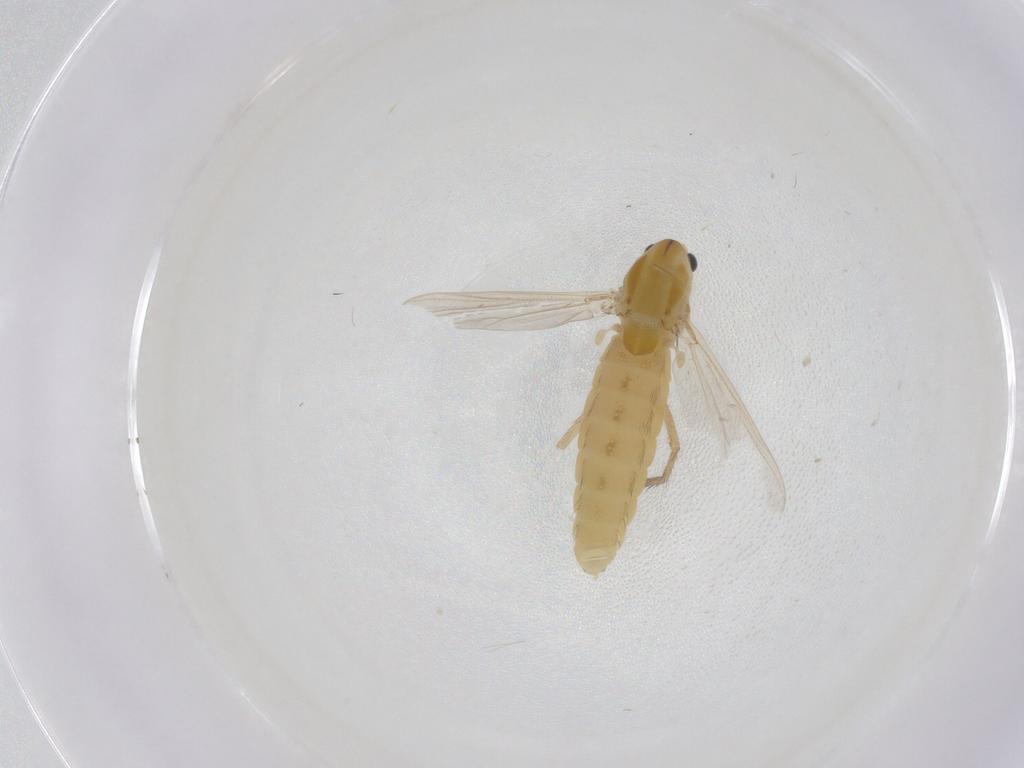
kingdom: Animalia
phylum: Arthropoda
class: Insecta
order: Diptera
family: Chironomidae
